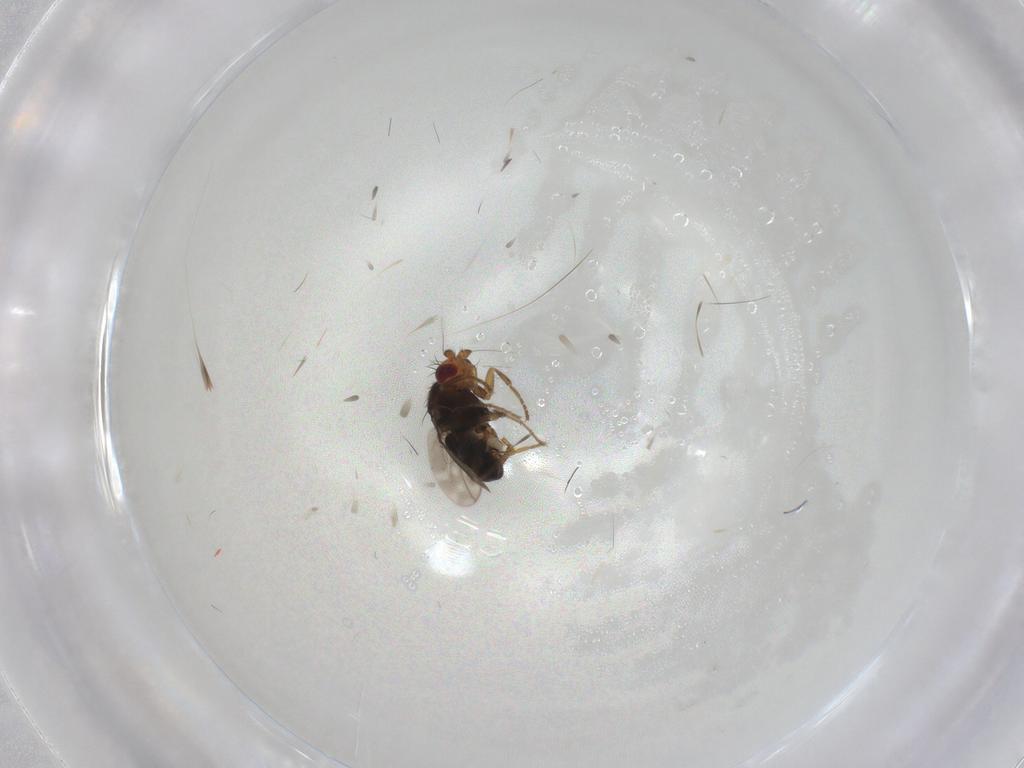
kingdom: Animalia
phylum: Arthropoda
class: Insecta
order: Diptera
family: Sphaeroceridae
